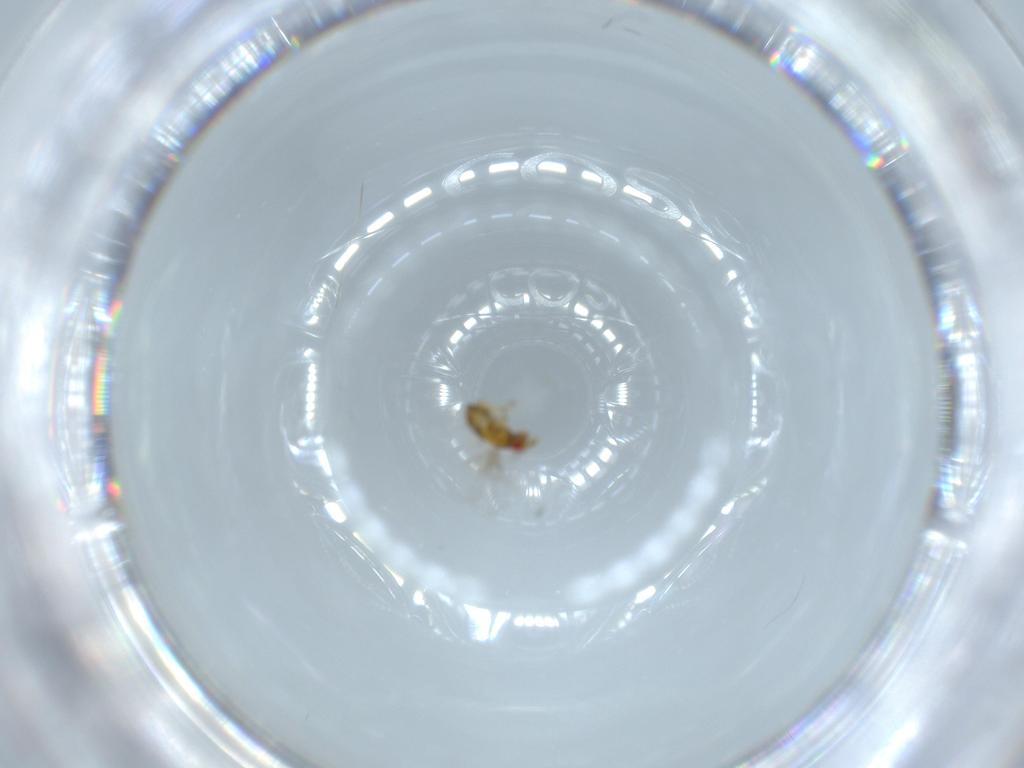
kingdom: Animalia
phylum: Arthropoda
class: Insecta
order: Hymenoptera
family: Trichogrammatidae
